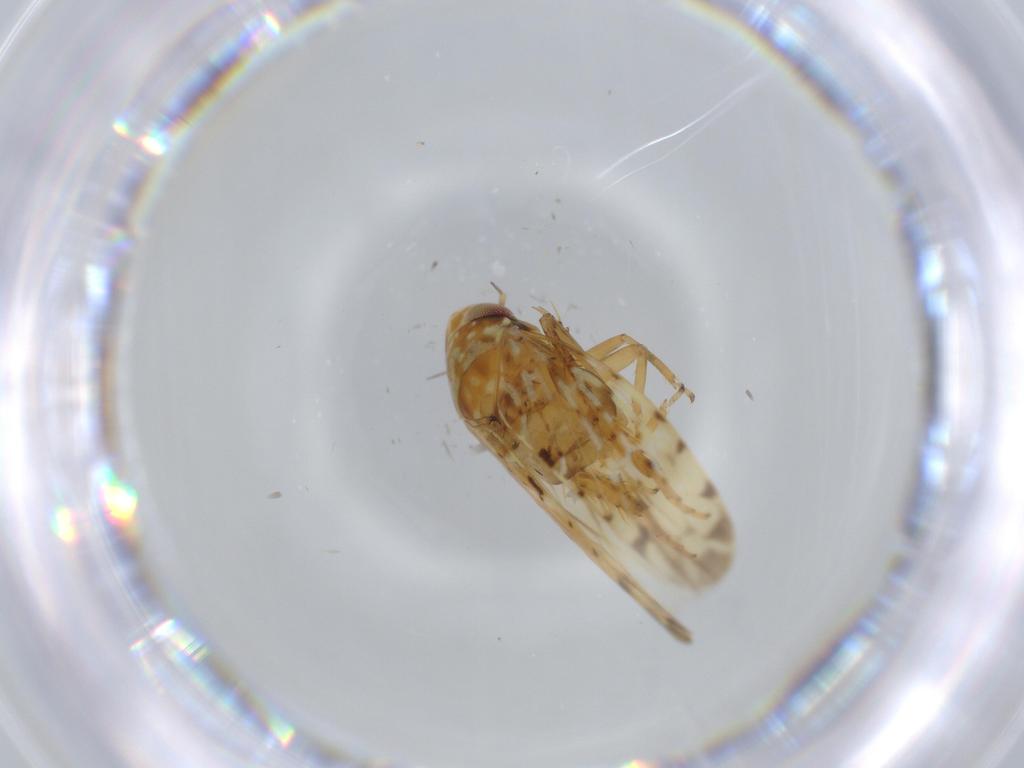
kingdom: Animalia
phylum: Arthropoda
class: Insecta
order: Hemiptera
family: Cicadellidae
